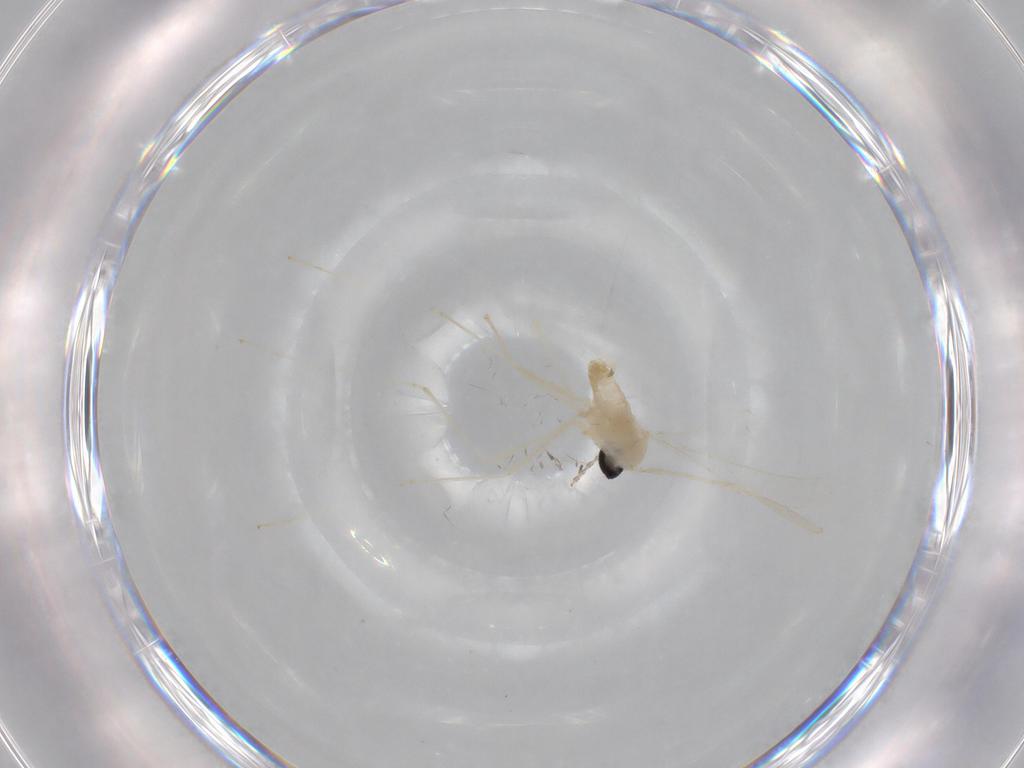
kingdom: Animalia
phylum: Arthropoda
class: Insecta
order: Diptera
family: Cecidomyiidae
